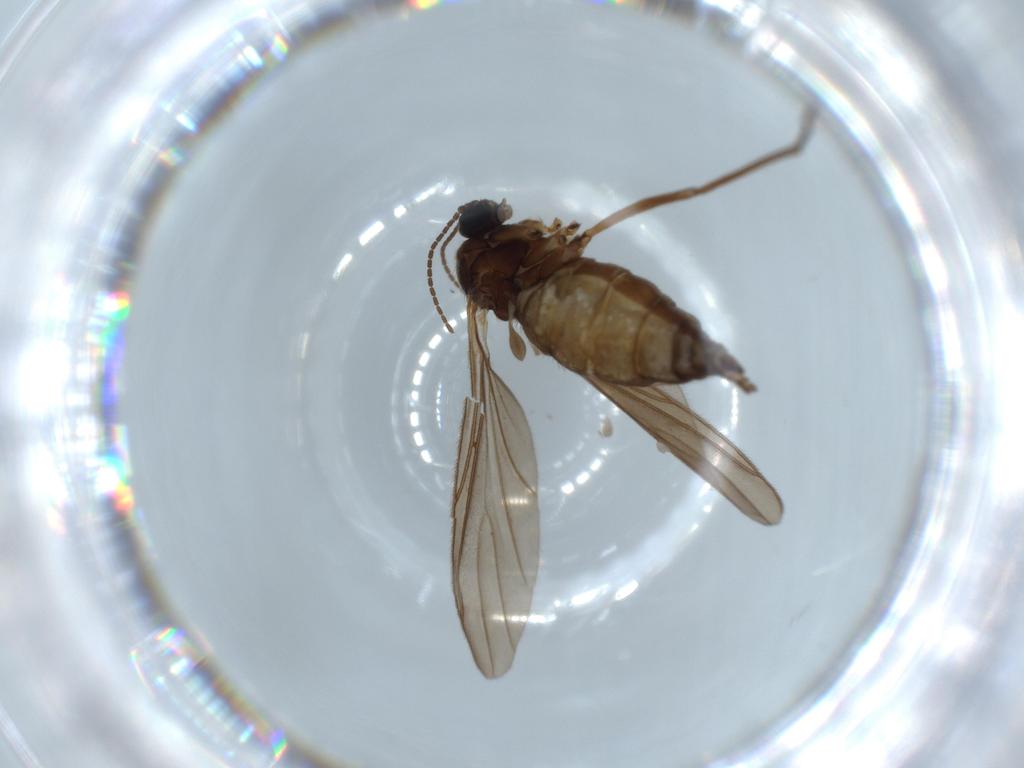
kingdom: Animalia
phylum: Arthropoda
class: Insecta
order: Diptera
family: Sciaridae
